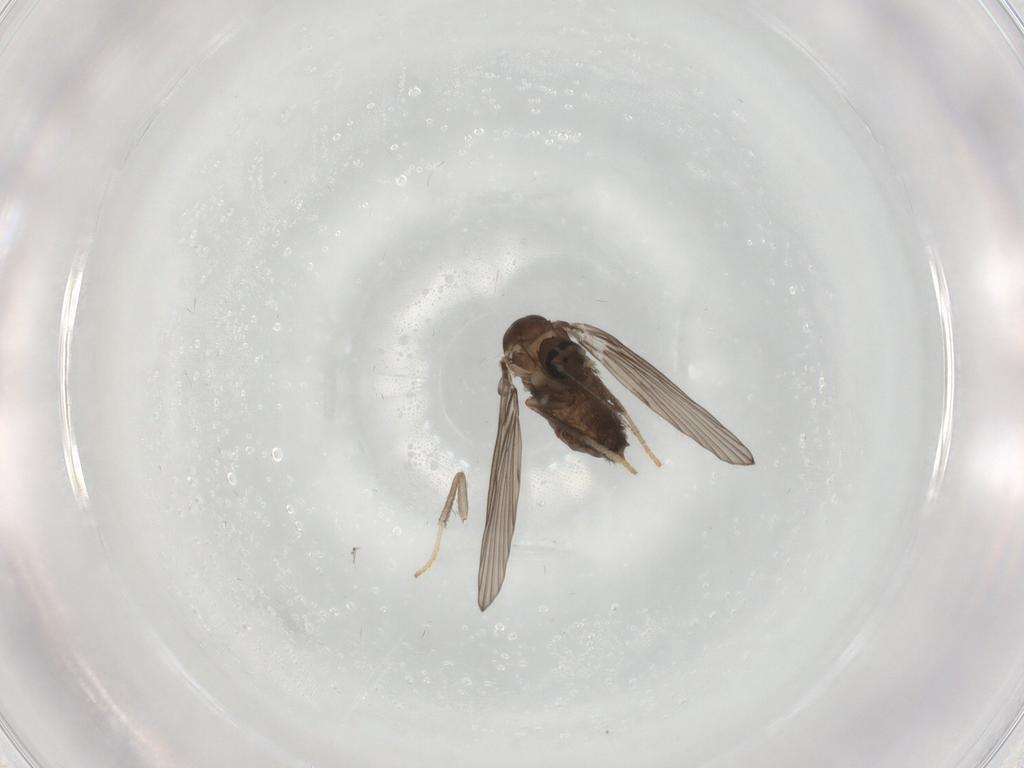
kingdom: Animalia
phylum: Arthropoda
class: Insecta
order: Diptera
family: Psychodidae
